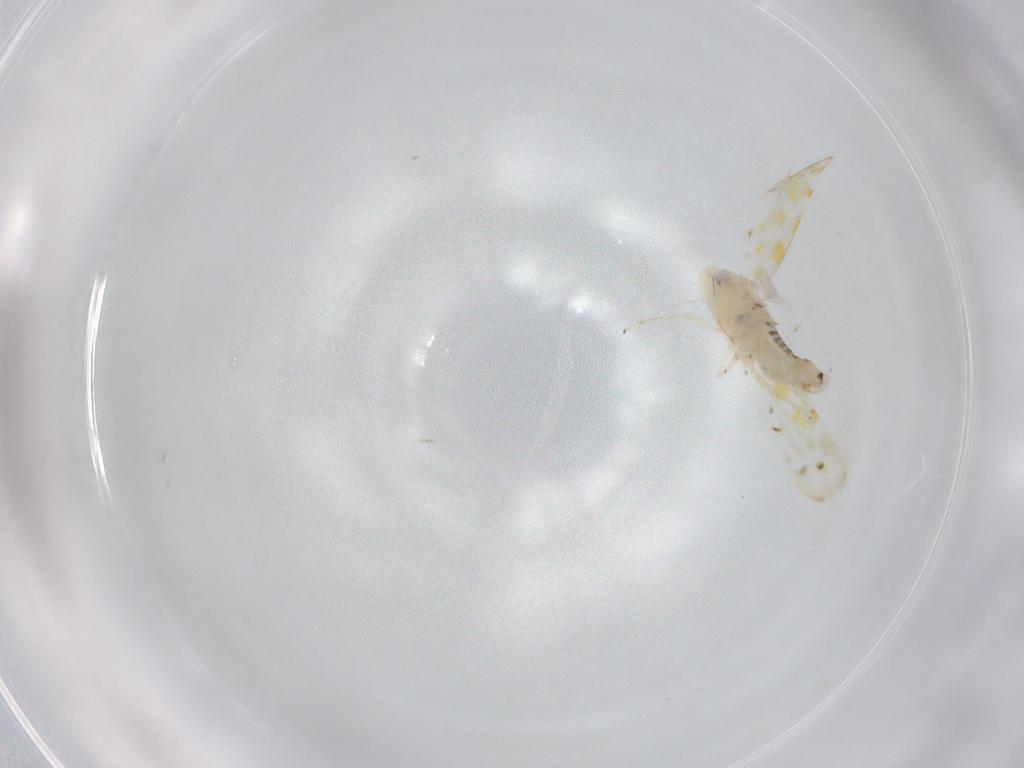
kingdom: Animalia
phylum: Arthropoda
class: Insecta
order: Hemiptera
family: Cicadellidae
